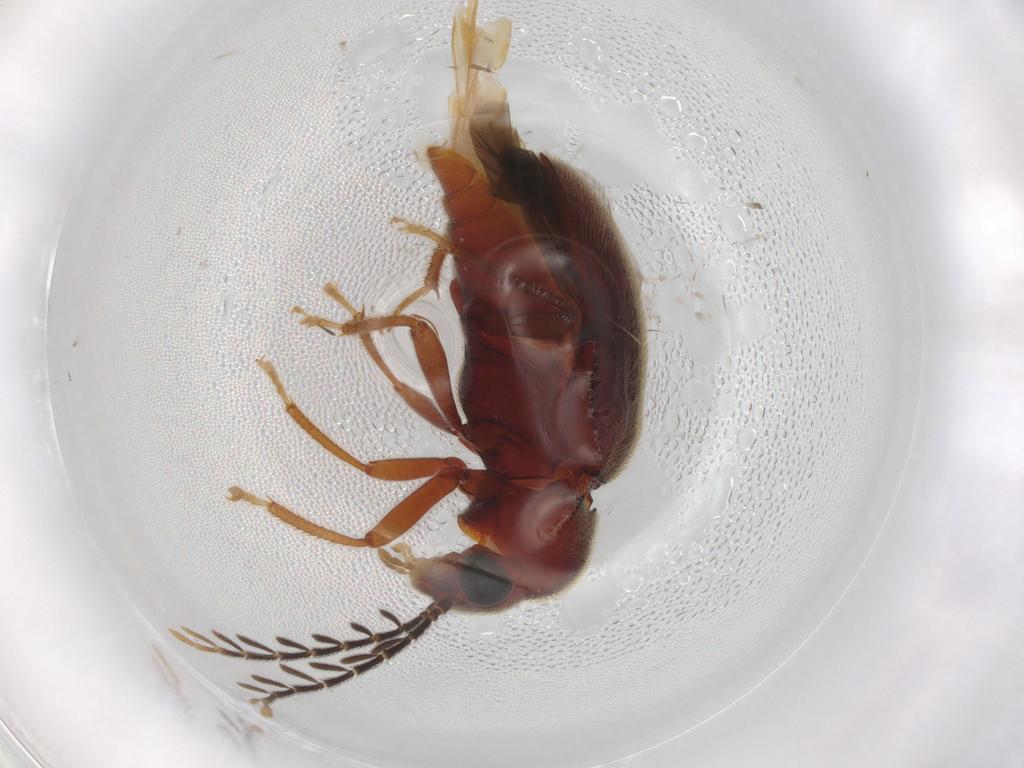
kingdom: Animalia
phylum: Arthropoda
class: Insecta
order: Coleoptera
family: Ptilodactylidae
